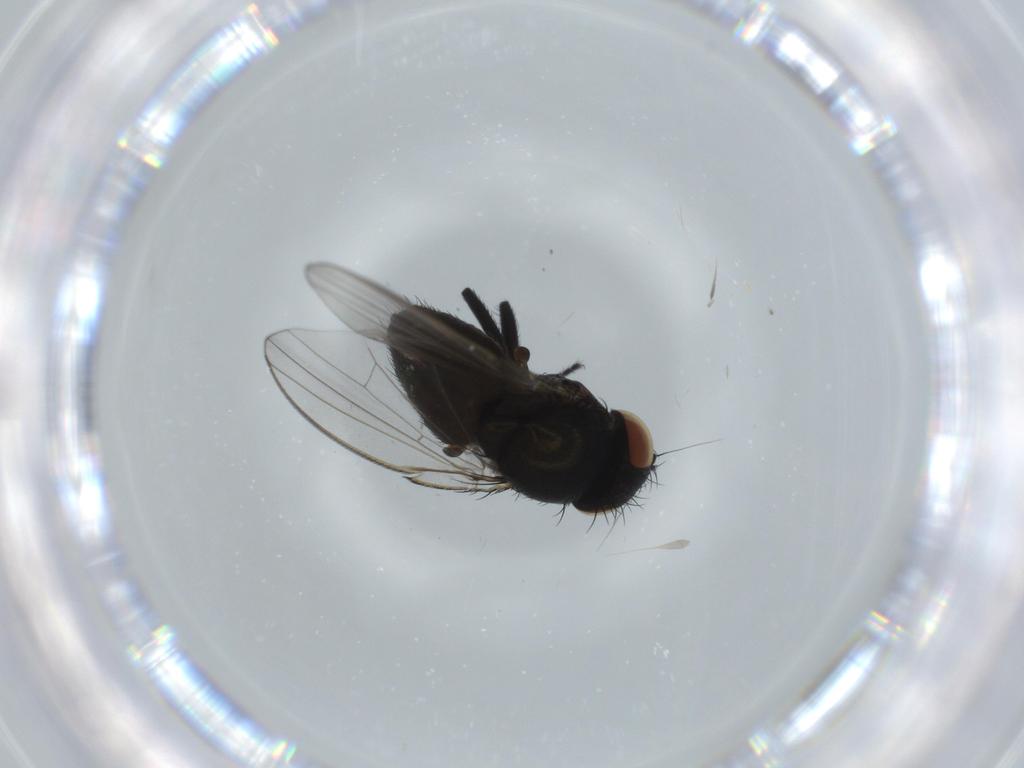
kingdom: Animalia
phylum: Arthropoda
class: Insecta
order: Diptera
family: Milichiidae
